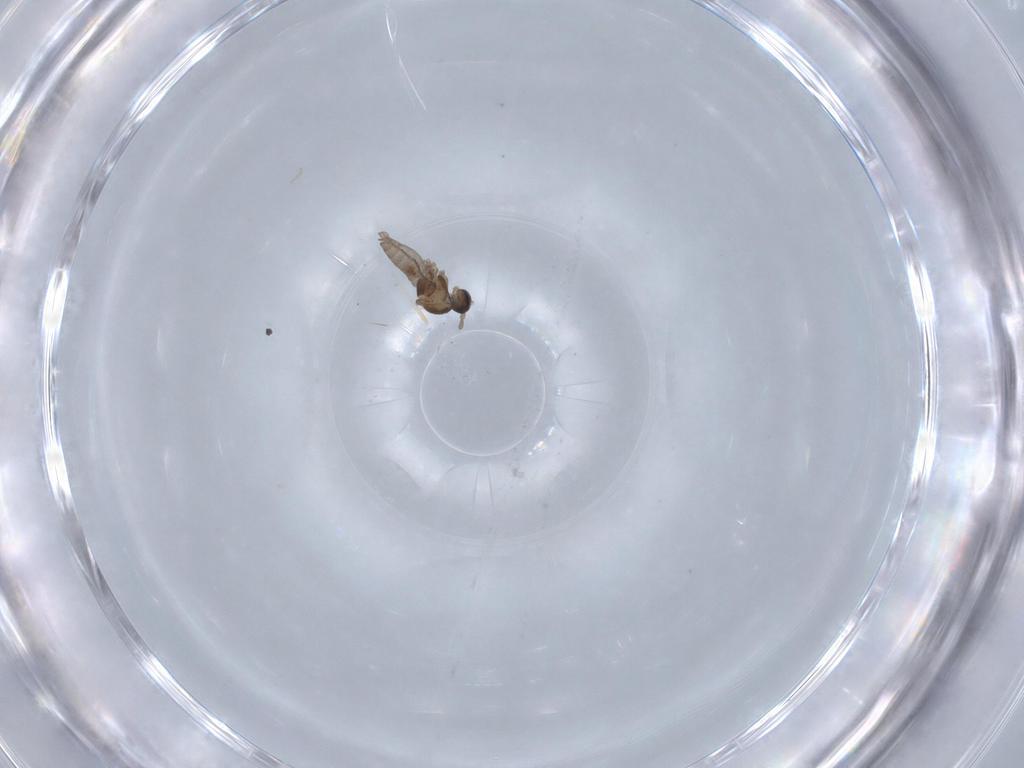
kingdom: Animalia
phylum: Arthropoda
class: Insecta
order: Diptera
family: Cecidomyiidae
